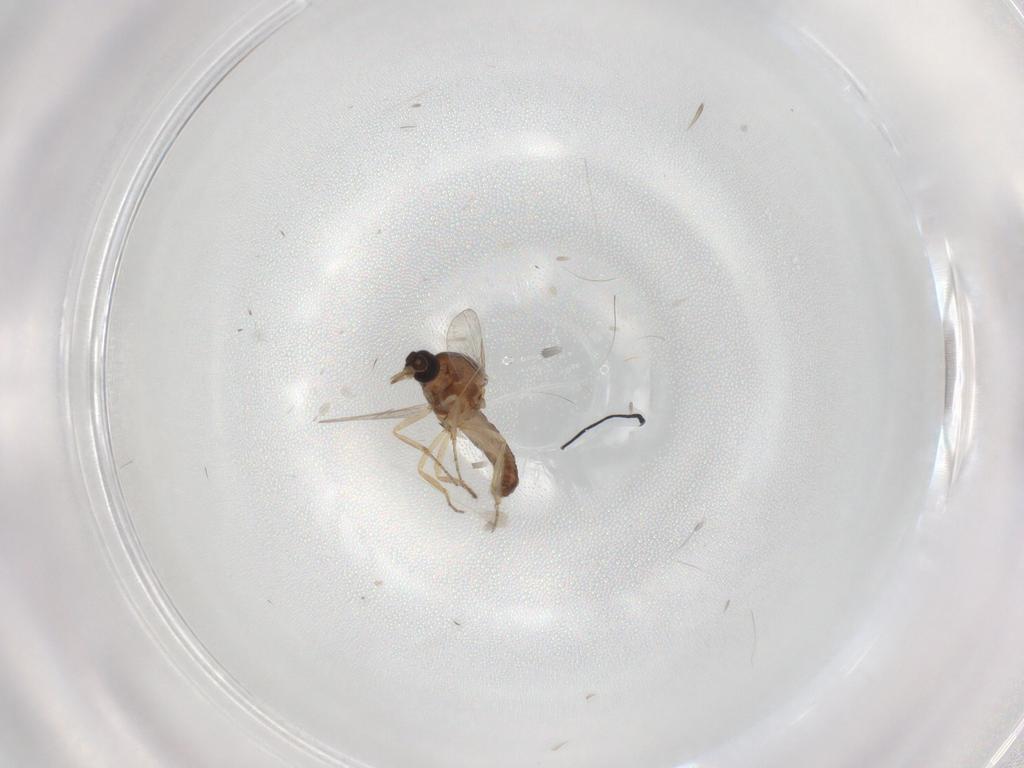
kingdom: Animalia
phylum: Arthropoda
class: Insecta
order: Diptera
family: Ceratopogonidae
